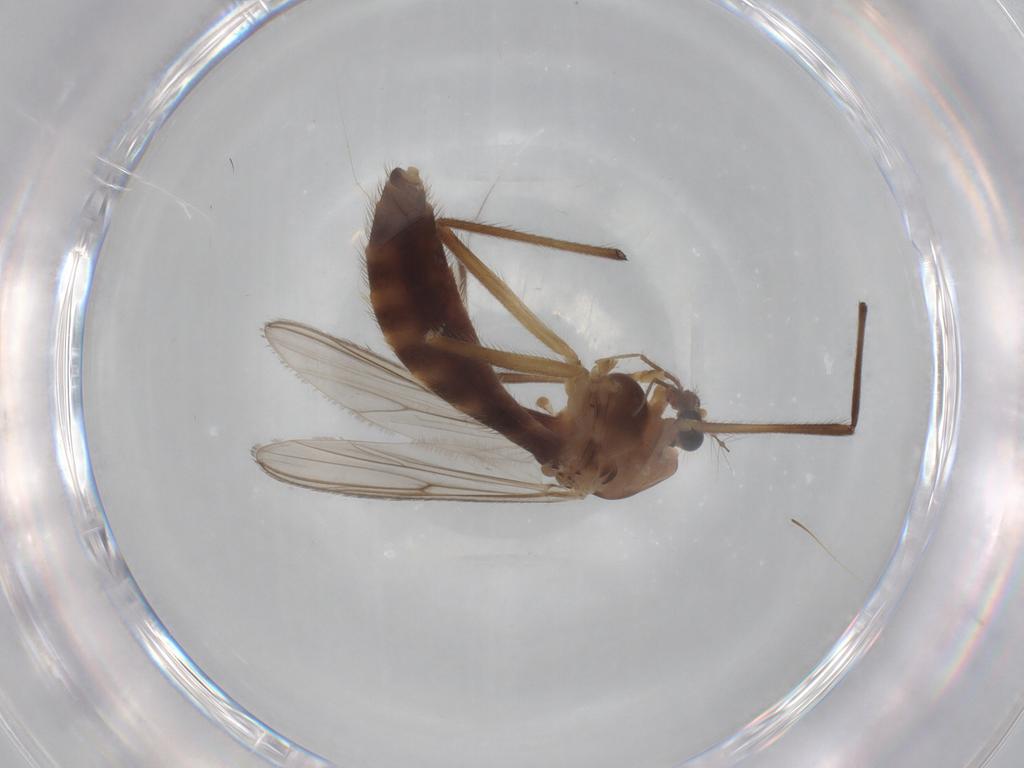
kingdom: Animalia
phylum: Arthropoda
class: Insecta
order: Diptera
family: Chironomidae
